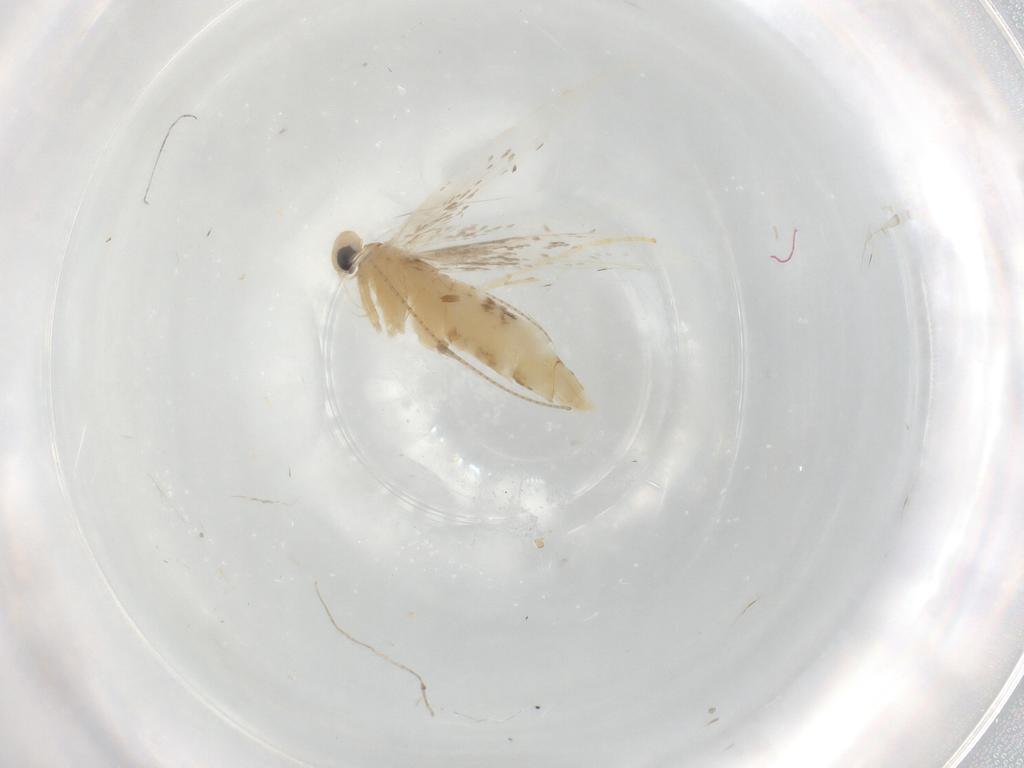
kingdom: Animalia
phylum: Arthropoda
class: Insecta
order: Lepidoptera
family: Gracillariidae
